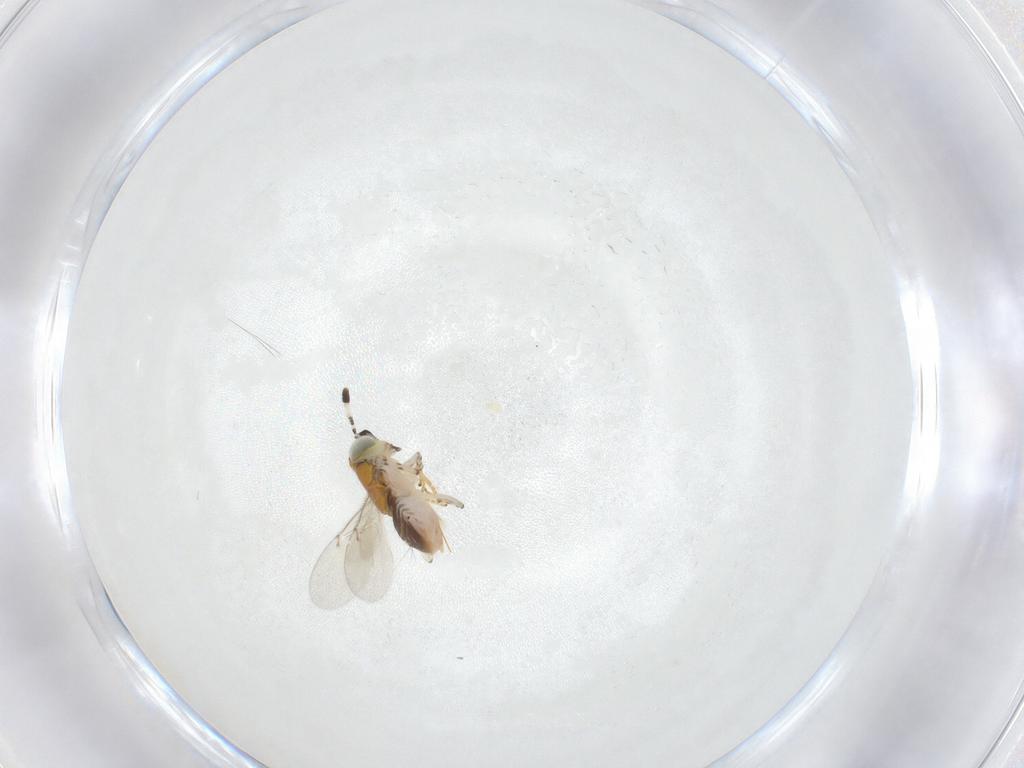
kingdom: Animalia
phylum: Arthropoda
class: Insecta
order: Hymenoptera
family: Encyrtidae
